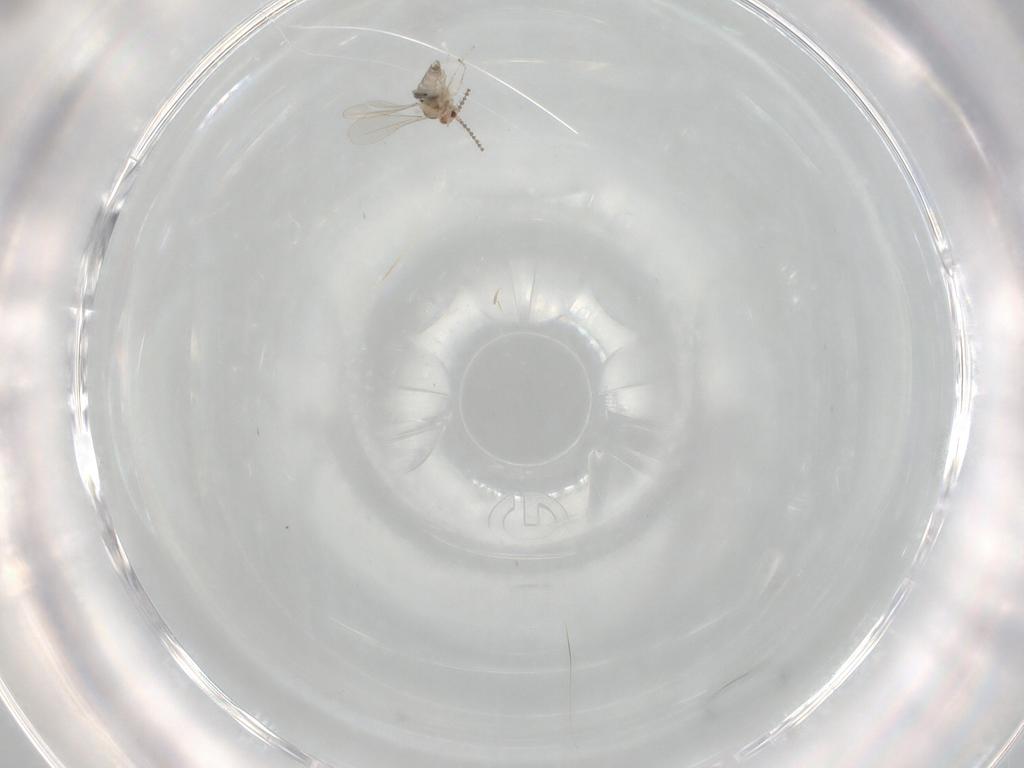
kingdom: Animalia
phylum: Arthropoda
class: Insecta
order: Diptera
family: Cecidomyiidae
